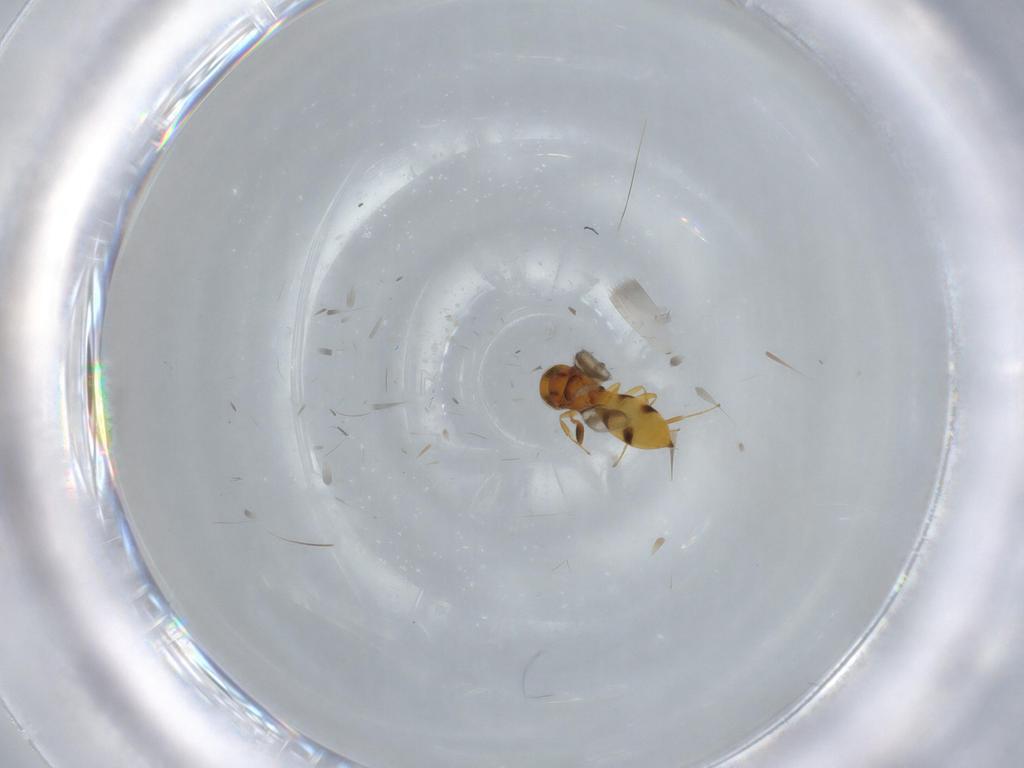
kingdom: Animalia
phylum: Arthropoda
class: Insecta
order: Hymenoptera
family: Scelionidae
